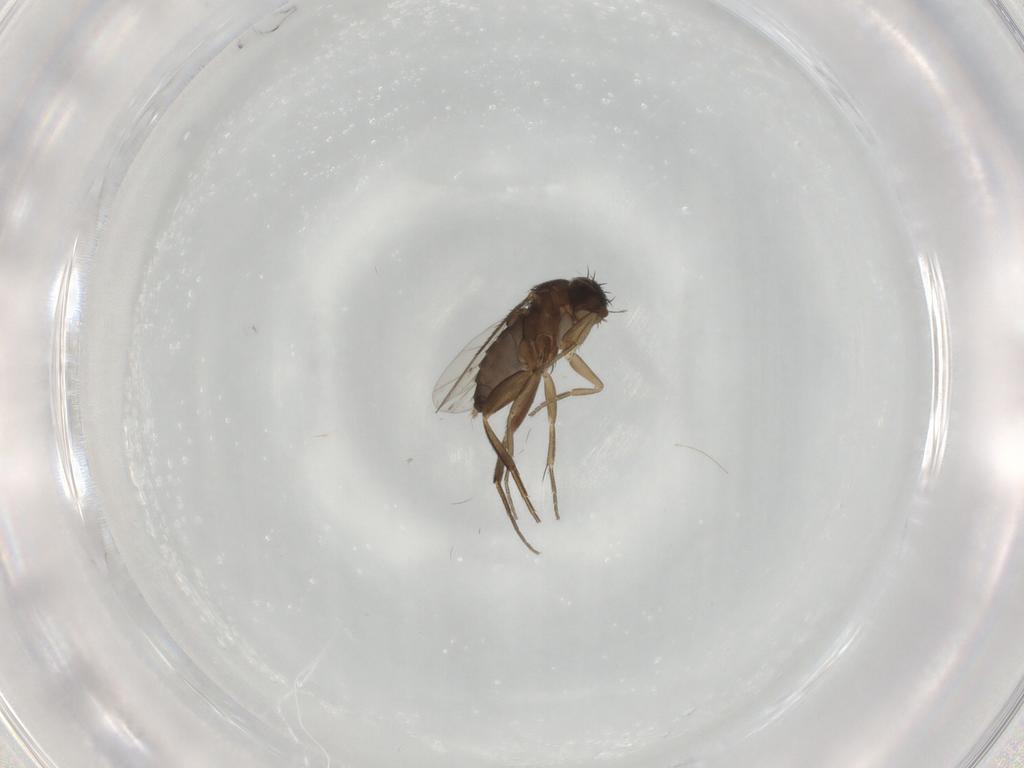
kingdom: Animalia
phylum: Arthropoda
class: Insecta
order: Diptera
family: Phoridae
